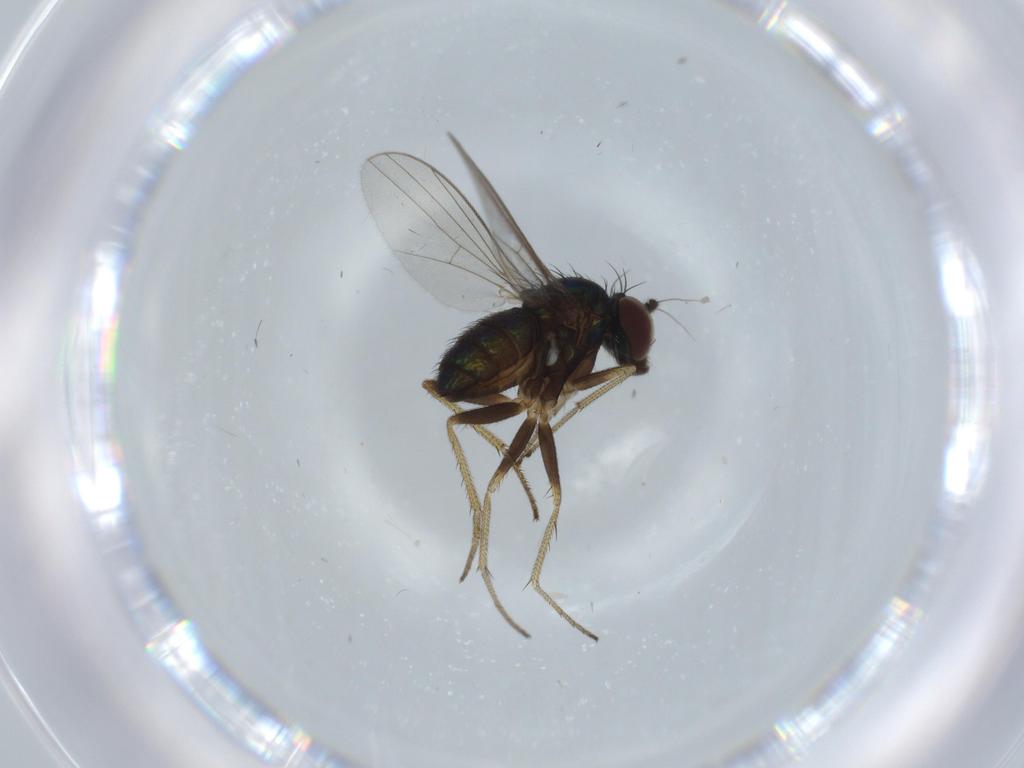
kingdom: Animalia
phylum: Arthropoda
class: Insecta
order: Diptera
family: Dolichopodidae
